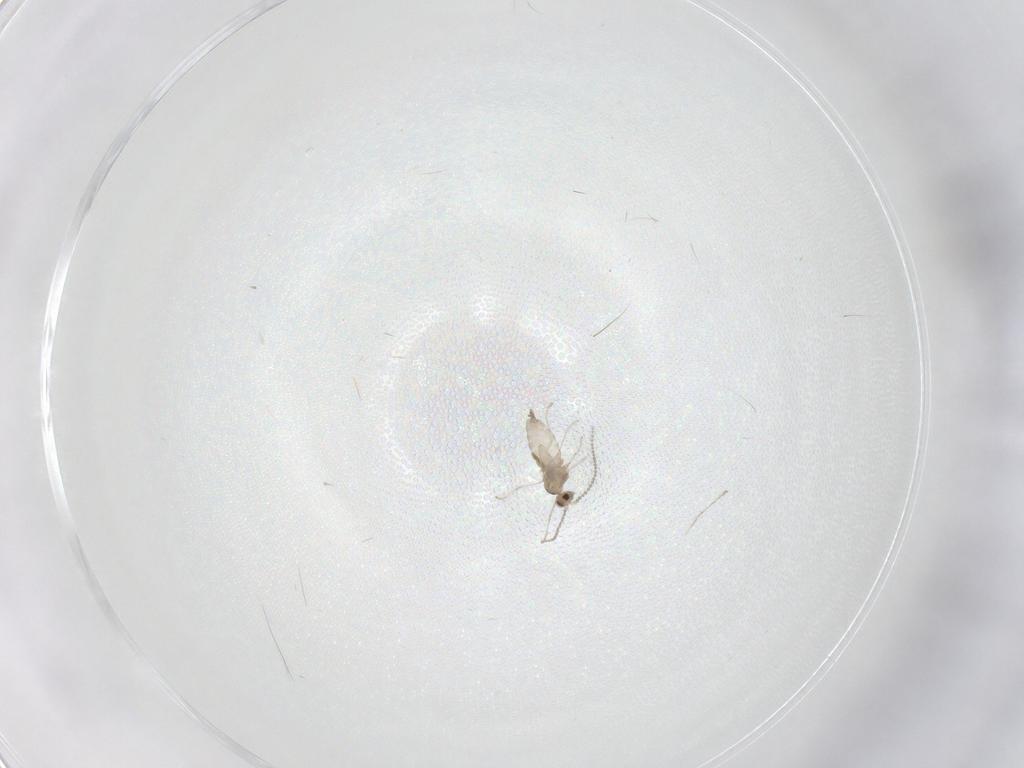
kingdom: Animalia
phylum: Arthropoda
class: Insecta
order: Diptera
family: Cecidomyiidae
